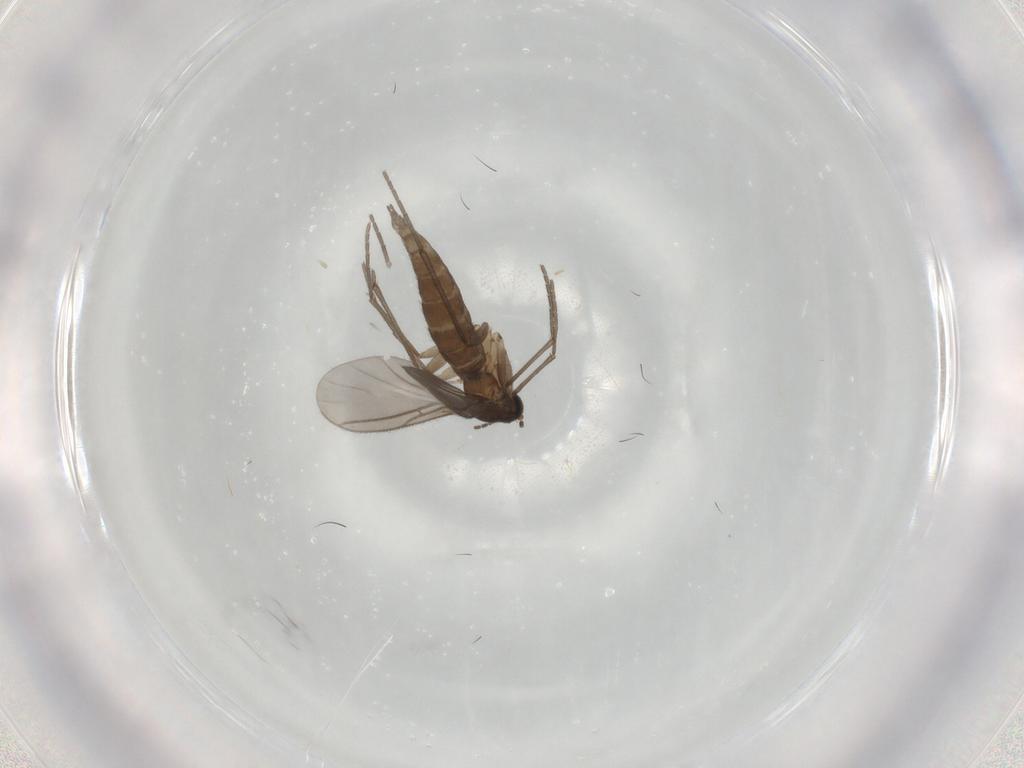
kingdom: Animalia
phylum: Arthropoda
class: Insecta
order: Diptera
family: Sciaridae
